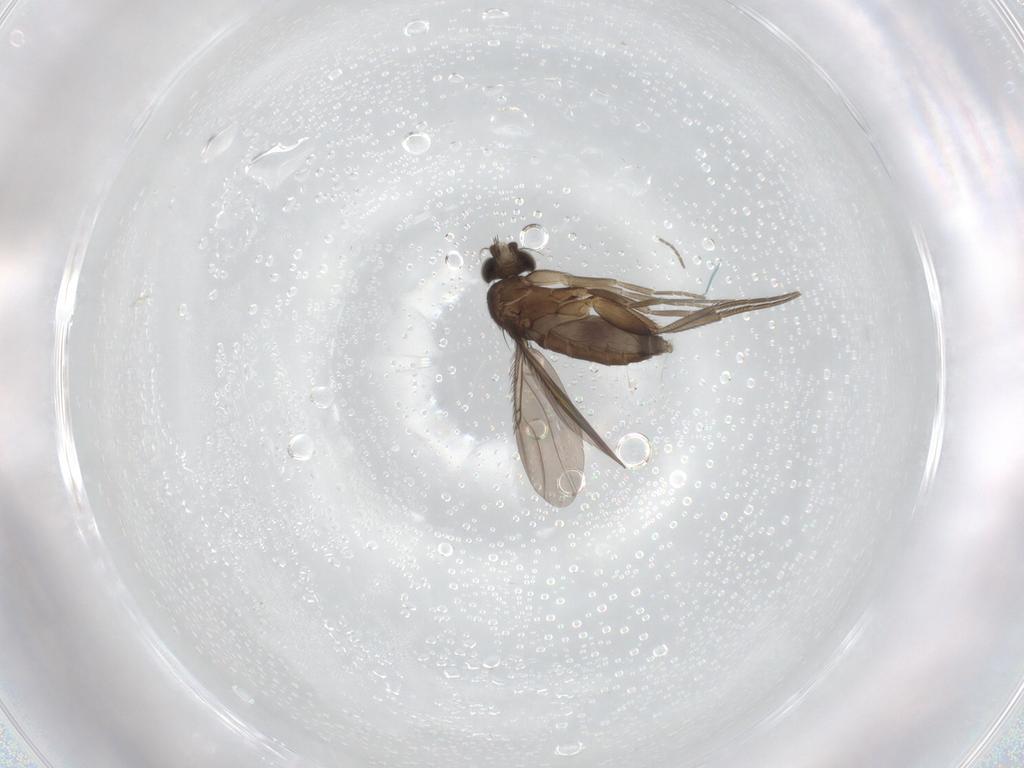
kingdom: Animalia
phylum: Arthropoda
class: Insecta
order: Diptera
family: Phoridae
